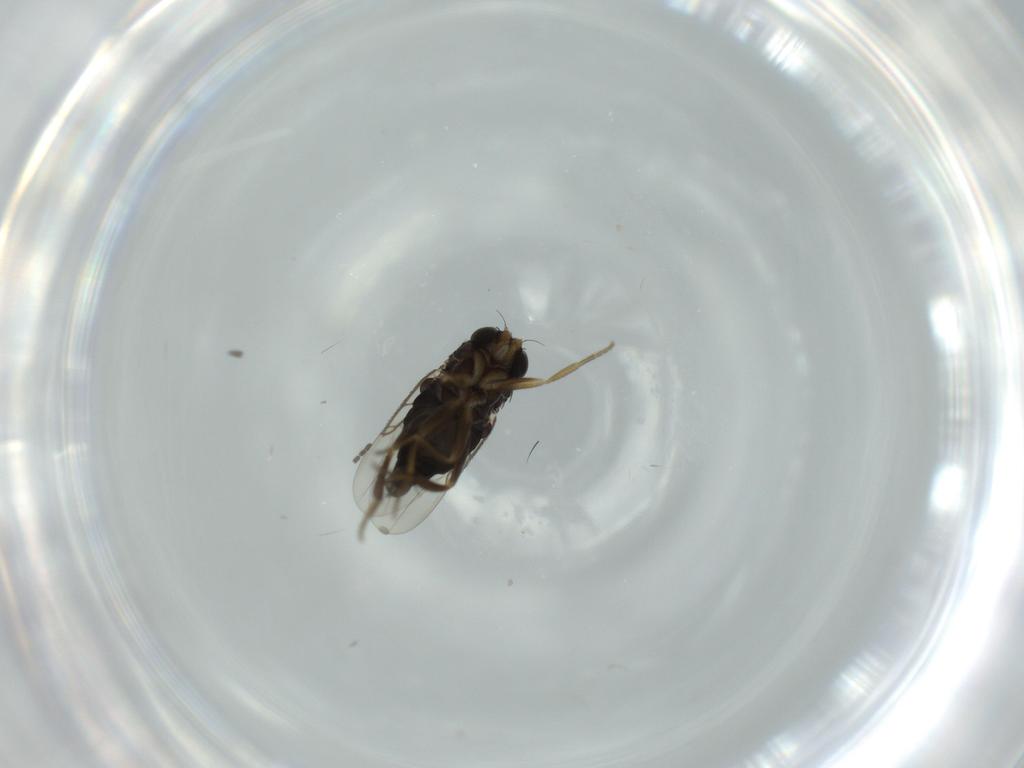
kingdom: Animalia
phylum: Arthropoda
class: Insecta
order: Diptera
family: Phoridae
